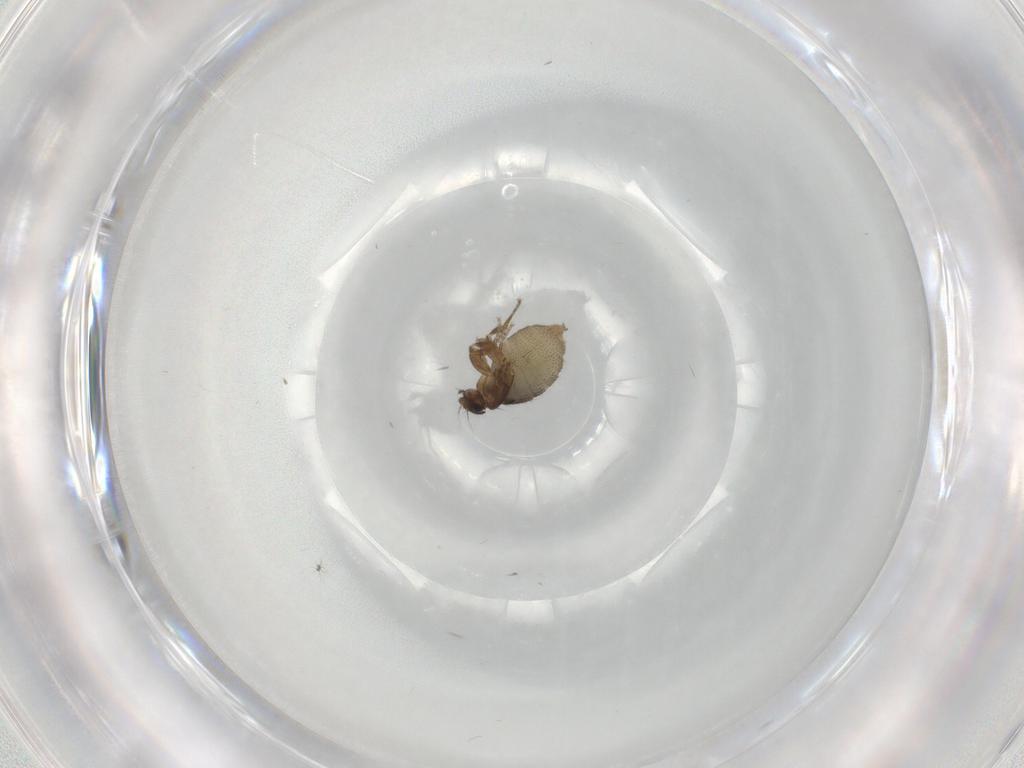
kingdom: Animalia
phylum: Arthropoda
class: Insecta
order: Diptera
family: Phoridae
